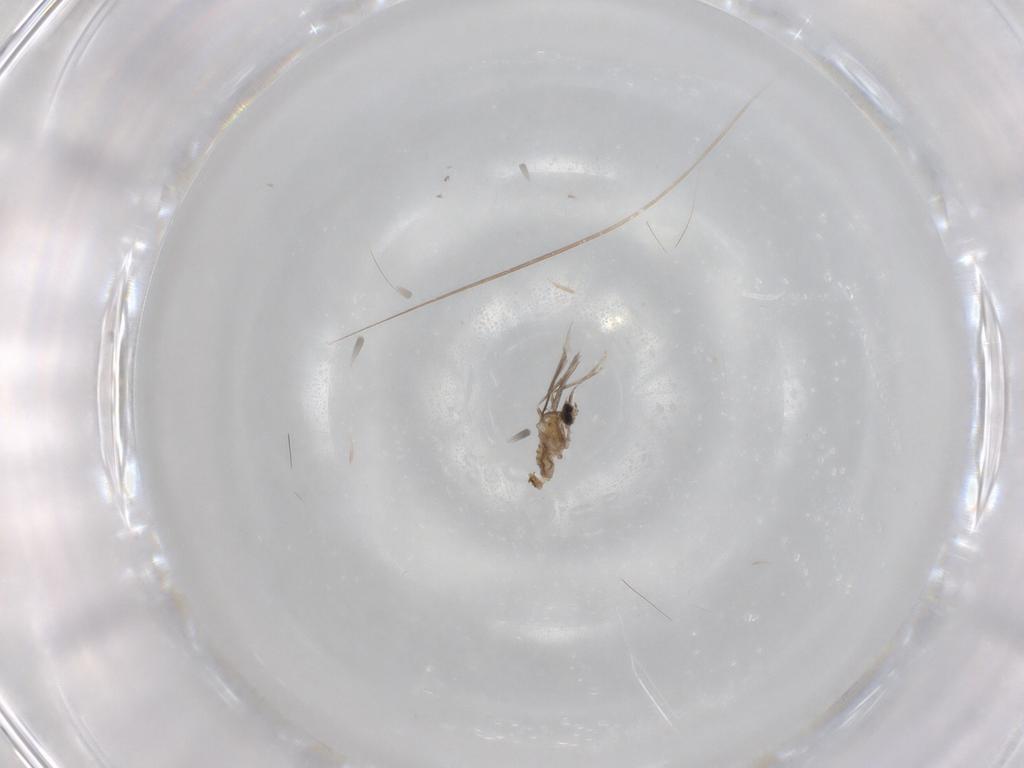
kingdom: Animalia
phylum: Arthropoda
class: Insecta
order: Diptera
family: Cecidomyiidae
